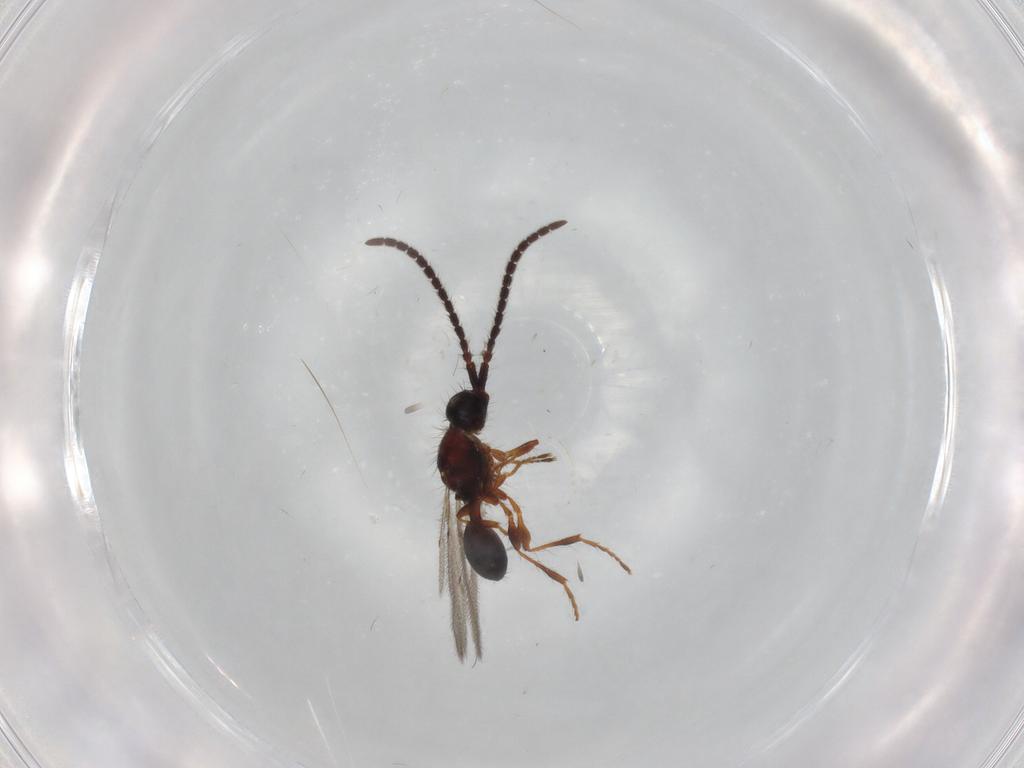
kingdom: Animalia
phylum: Arthropoda
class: Insecta
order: Hymenoptera
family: Diapriidae
